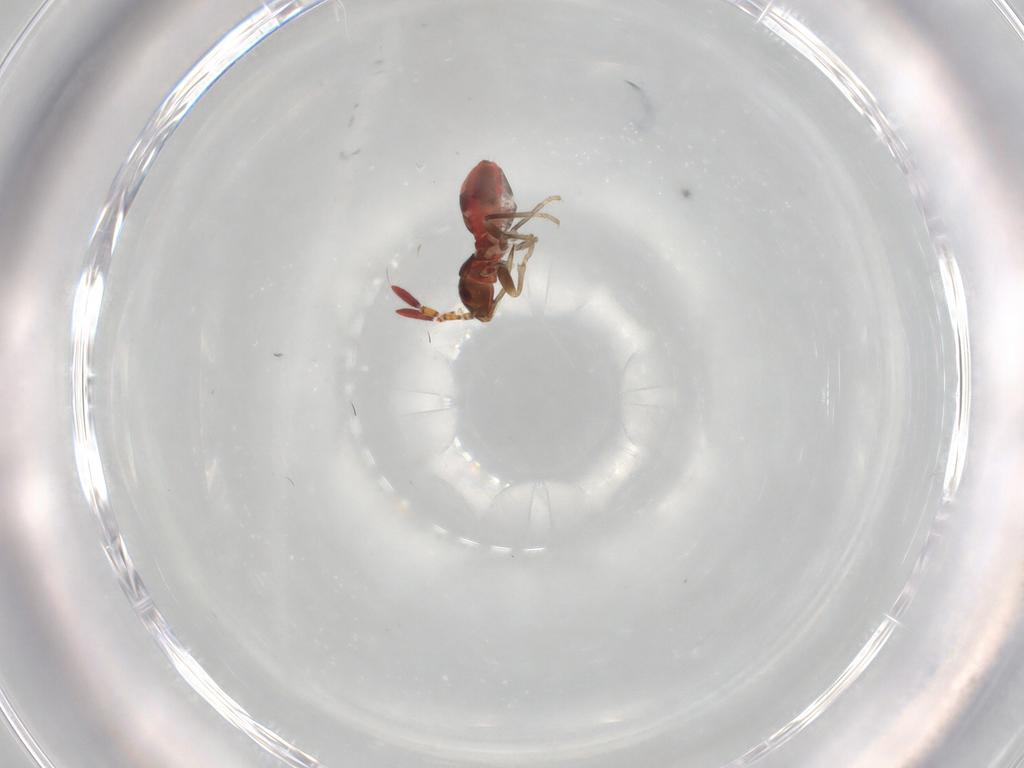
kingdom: Animalia
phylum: Arthropoda
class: Insecta
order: Hemiptera
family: Rhyparochromidae
